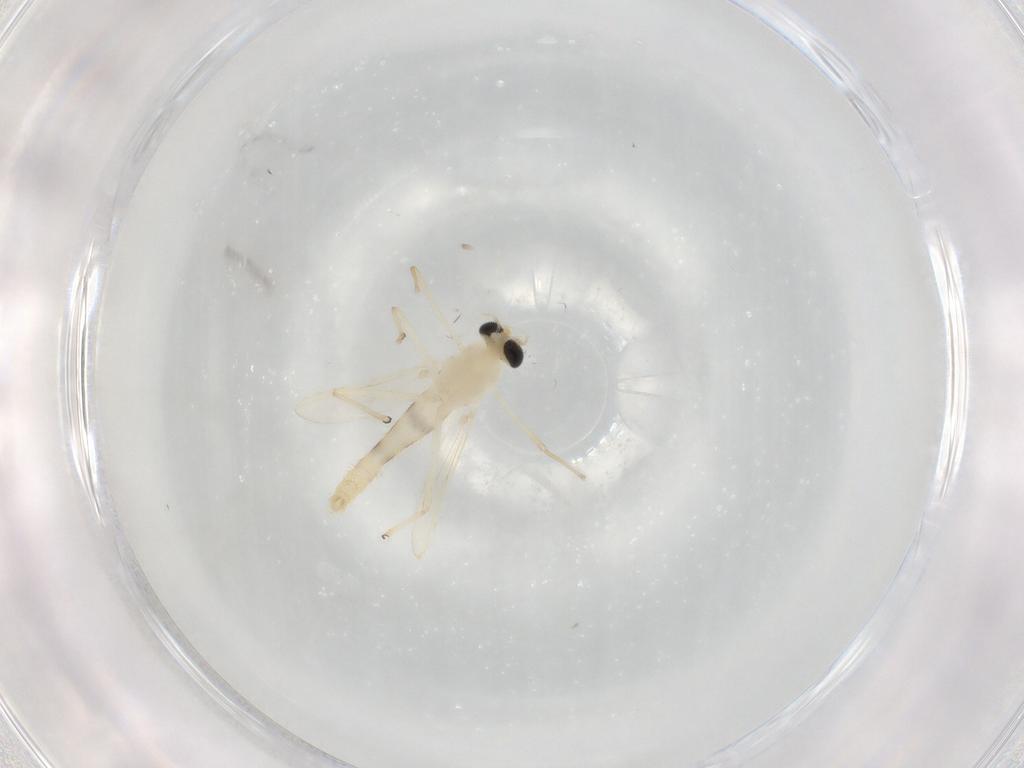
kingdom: Animalia
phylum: Arthropoda
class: Insecta
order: Diptera
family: Chironomidae
